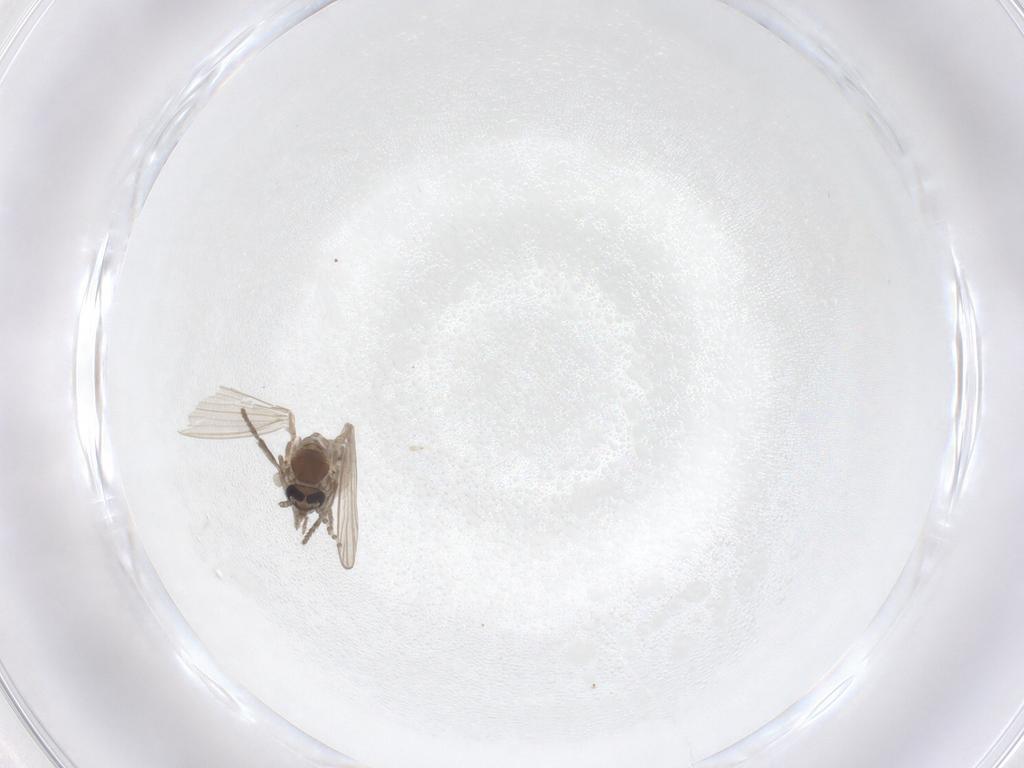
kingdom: Animalia
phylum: Arthropoda
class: Insecta
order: Diptera
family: Psychodidae
